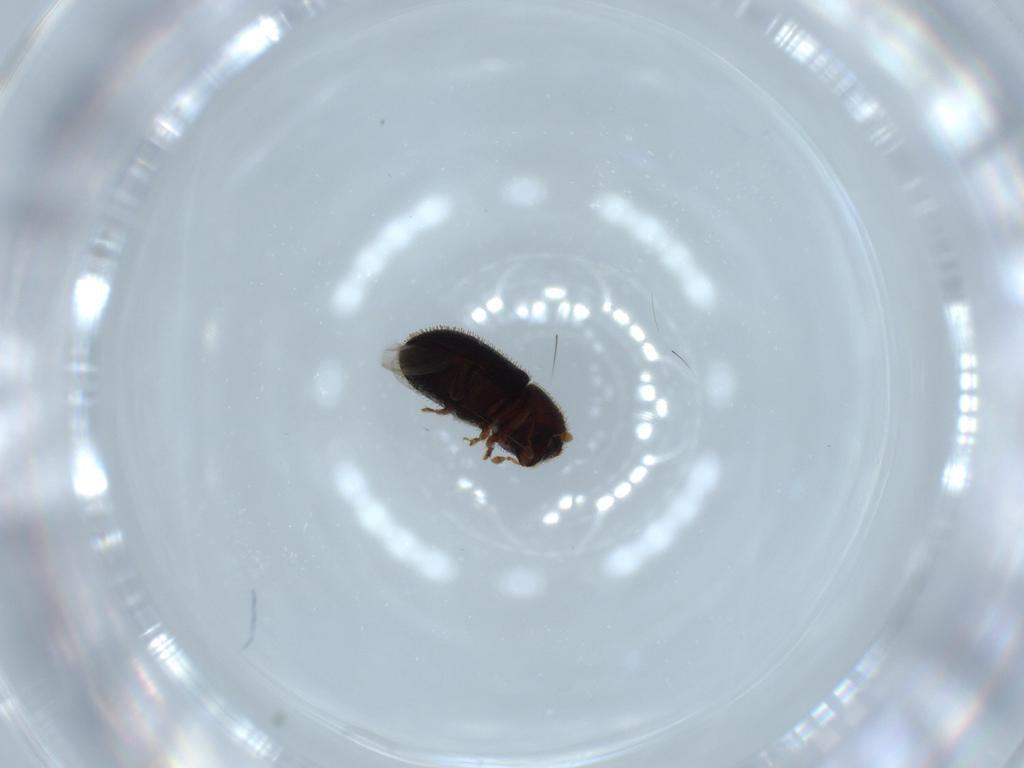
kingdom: Animalia
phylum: Arthropoda
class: Insecta
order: Coleoptera
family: Curculionidae
